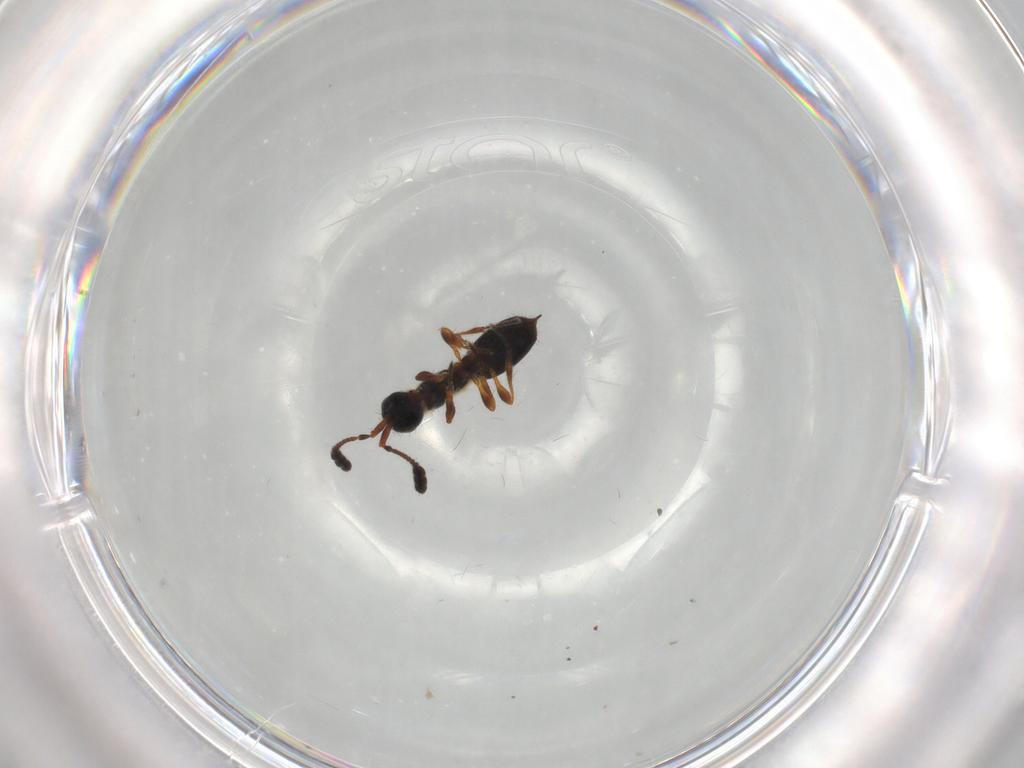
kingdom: Animalia
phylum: Arthropoda
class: Insecta
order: Hymenoptera
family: Diapriidae
